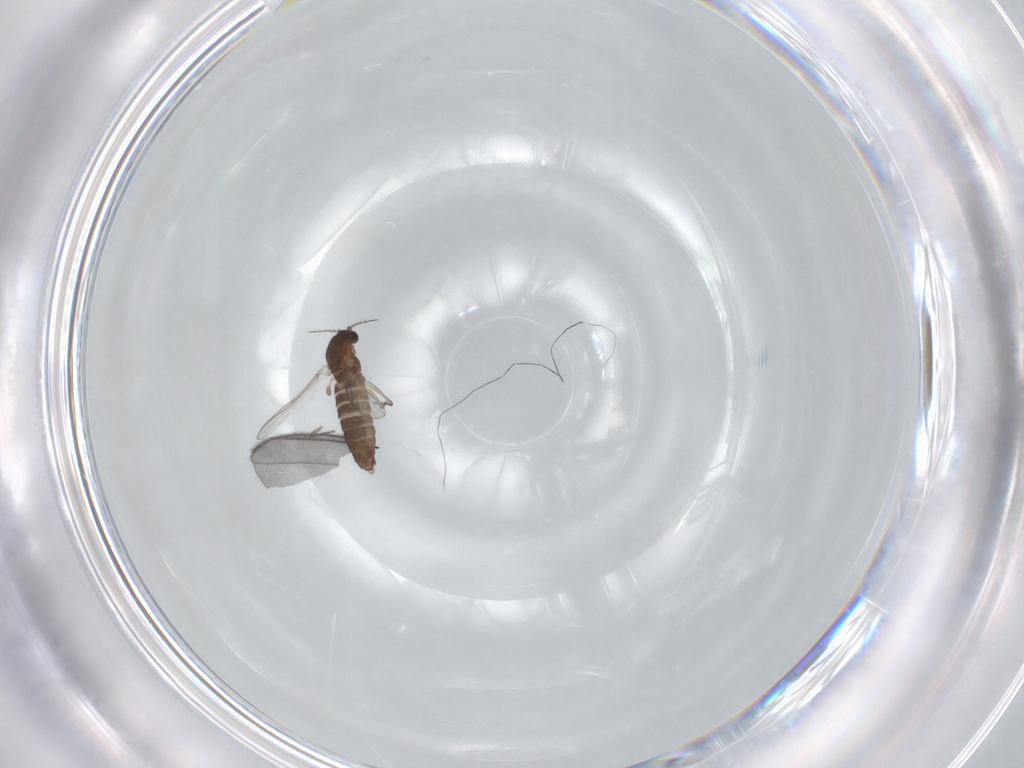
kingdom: Animalia
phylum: Arthropoda
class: Insecta
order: Diptera
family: Chironomidae
